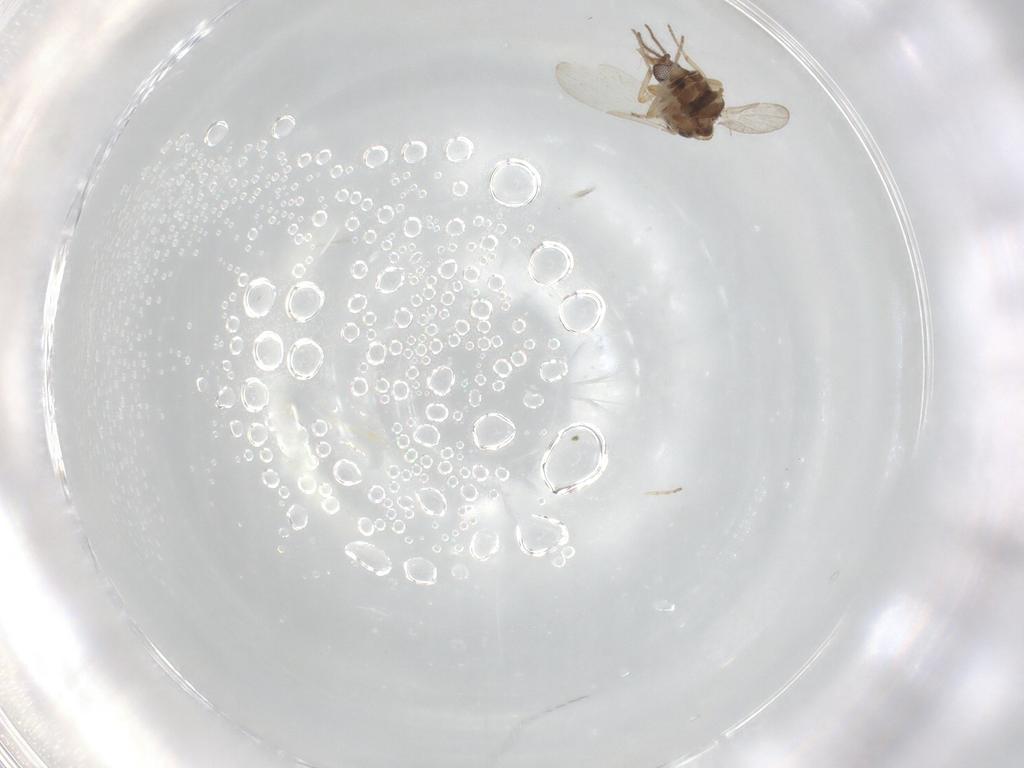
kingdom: Animalia
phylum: Arthropoda
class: Insecta
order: Diptera
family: Ceratopogonidae
